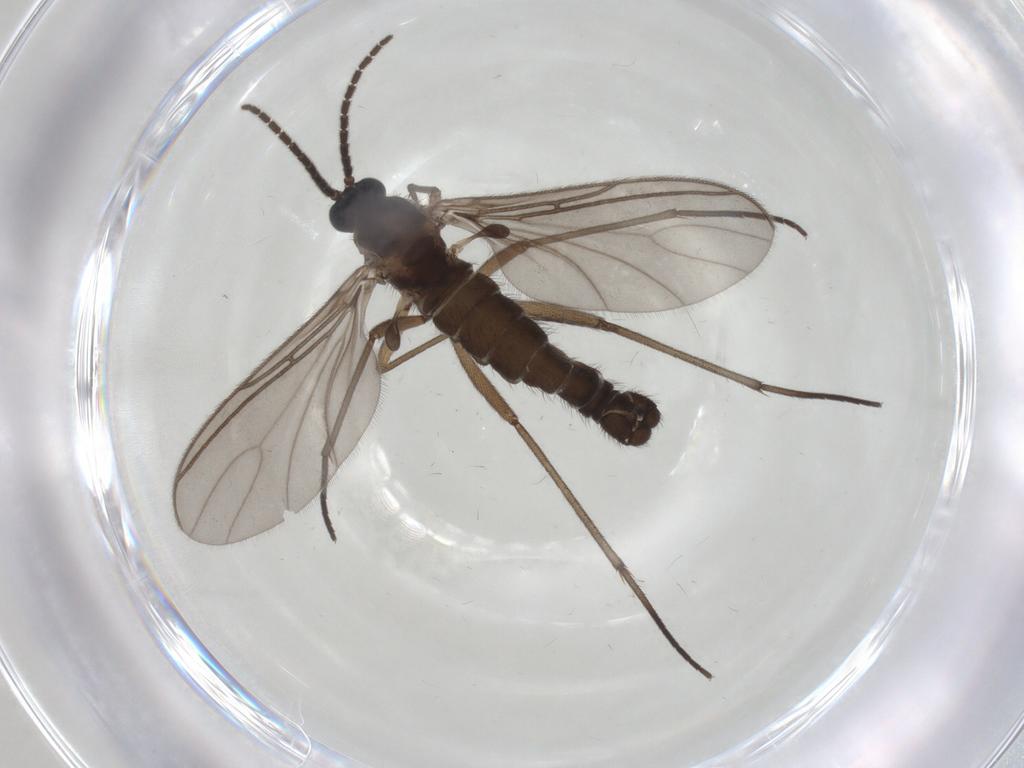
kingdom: Animalia
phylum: Arthropoda
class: Insecta
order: Diptera
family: Sciaridae
